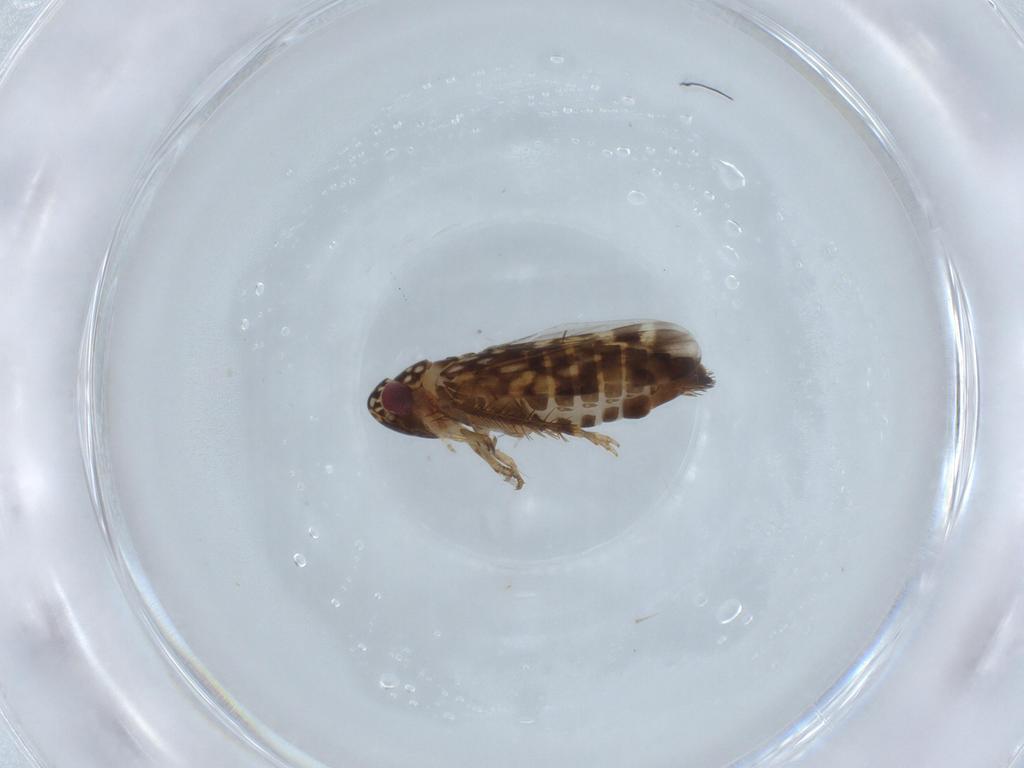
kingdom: Animalia
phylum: Arthropoda
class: Insecta
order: Hemiptera
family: Cicadellidae
